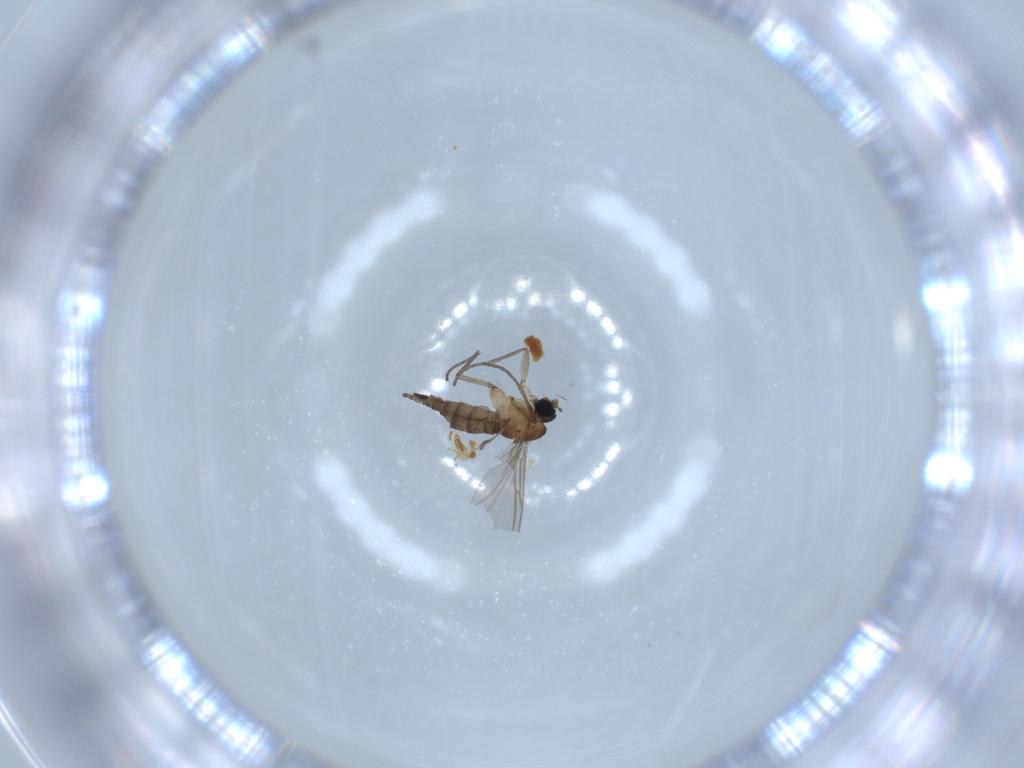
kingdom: Animalia
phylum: Arthropoda
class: Insecta
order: Diptera
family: Sciaridae
